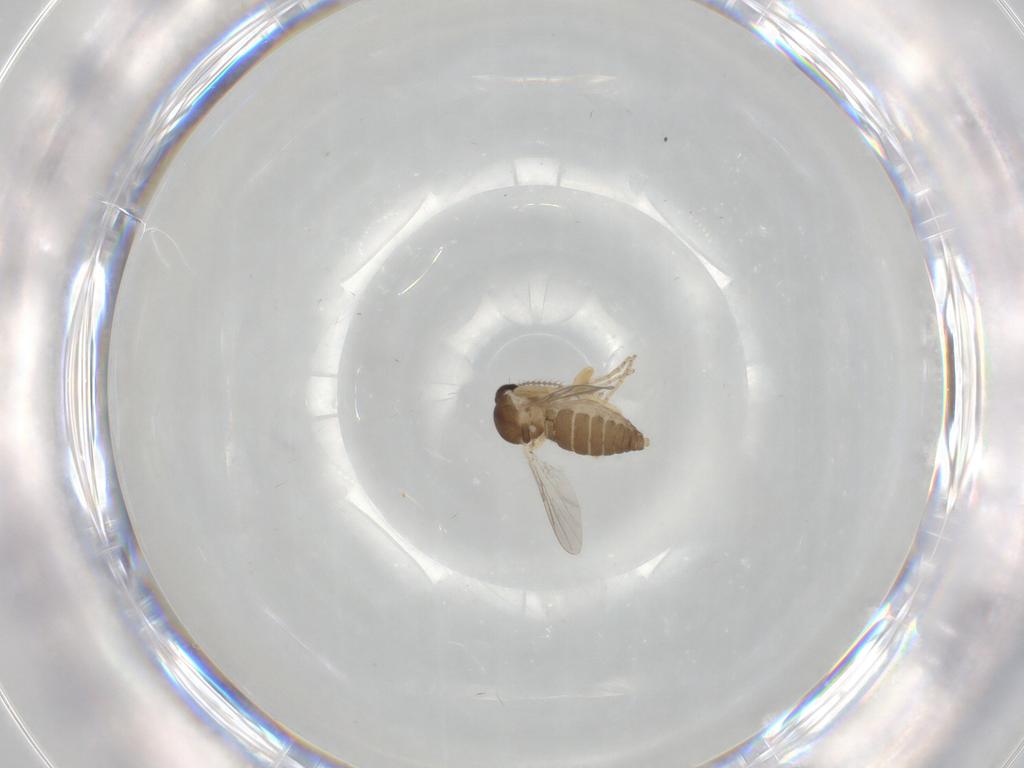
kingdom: Animalia
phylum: Arthropoda
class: Insecta
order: Diptera
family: Ceratopogonidae
